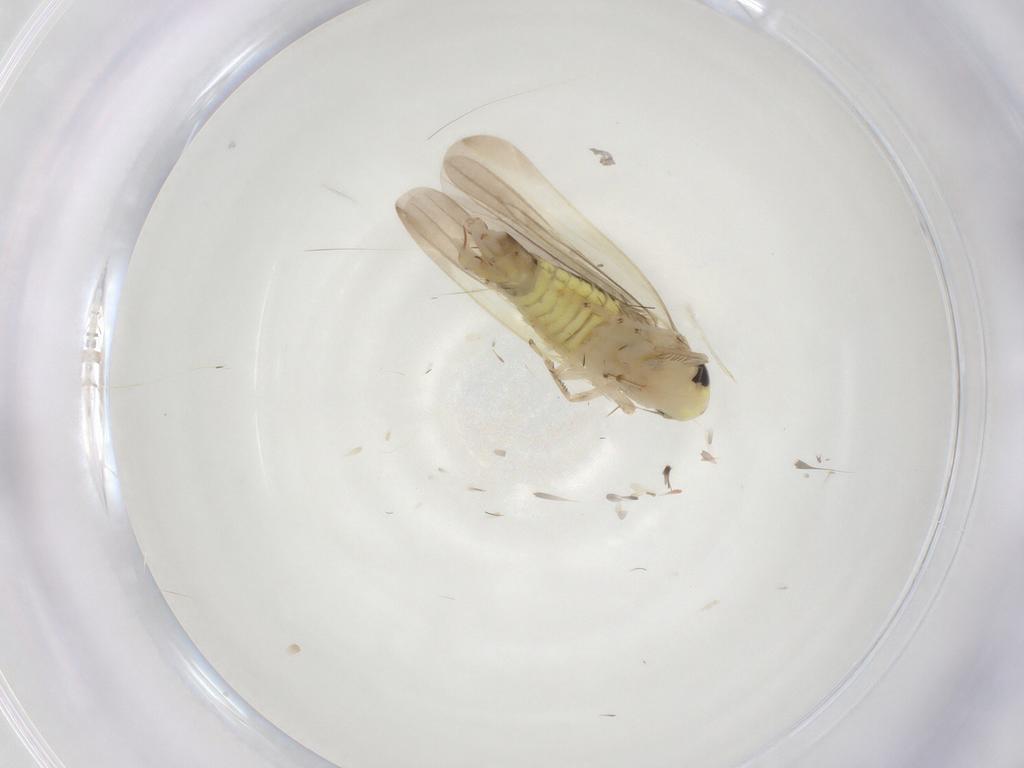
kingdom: Animalia
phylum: Arthropoda
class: Insecta
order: Hemiptera
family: Cicadellidae
